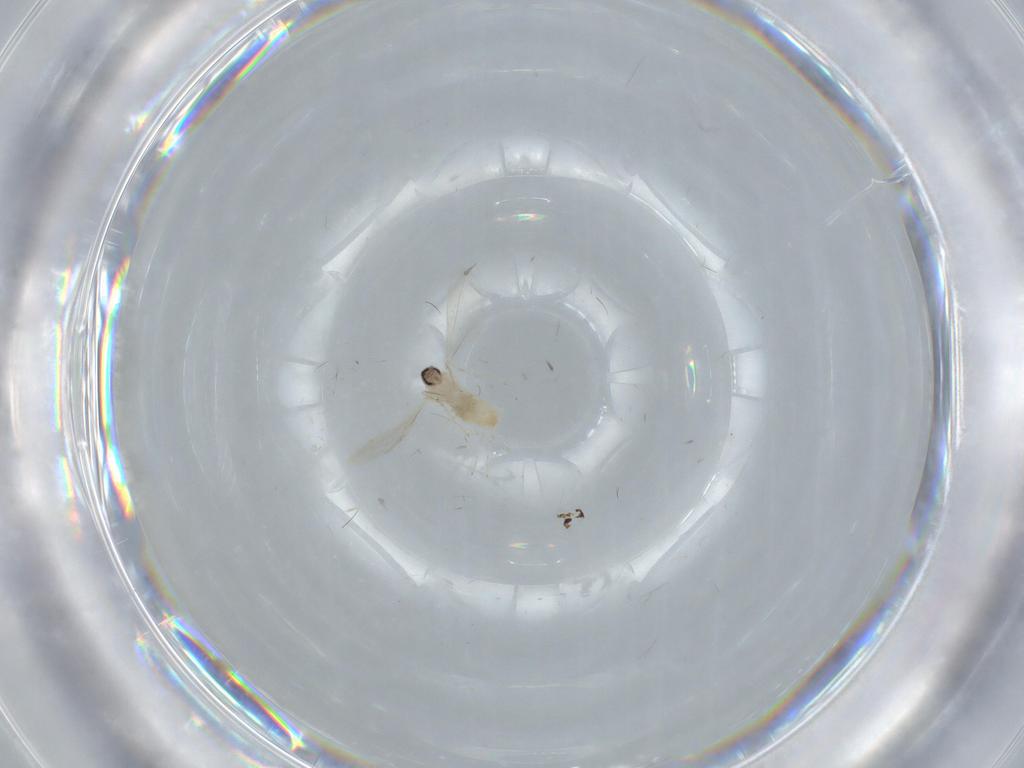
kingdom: Animalia
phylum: Arthropoda
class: Insecta
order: Diptera
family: Cecidomyiidae
